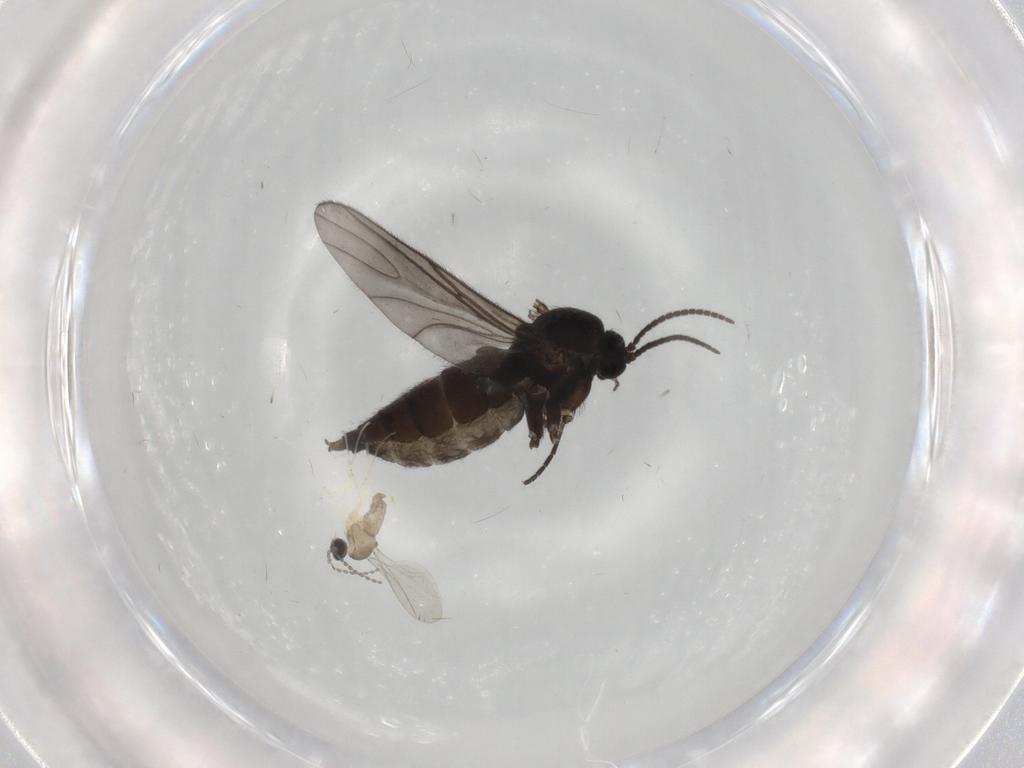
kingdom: Animalia
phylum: Arthropoda
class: Insecta
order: Diptera
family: Sciaridae
